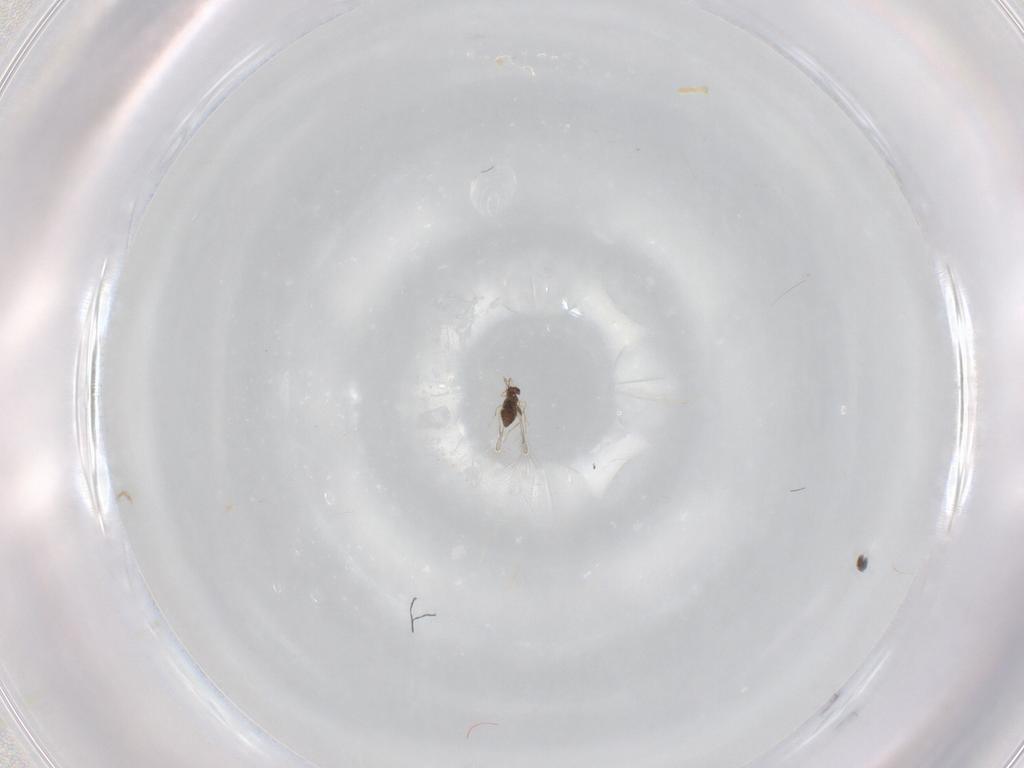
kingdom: Animalia
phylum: Arthropoda
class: Insecta
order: Hymenoptera
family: Mymaridae
